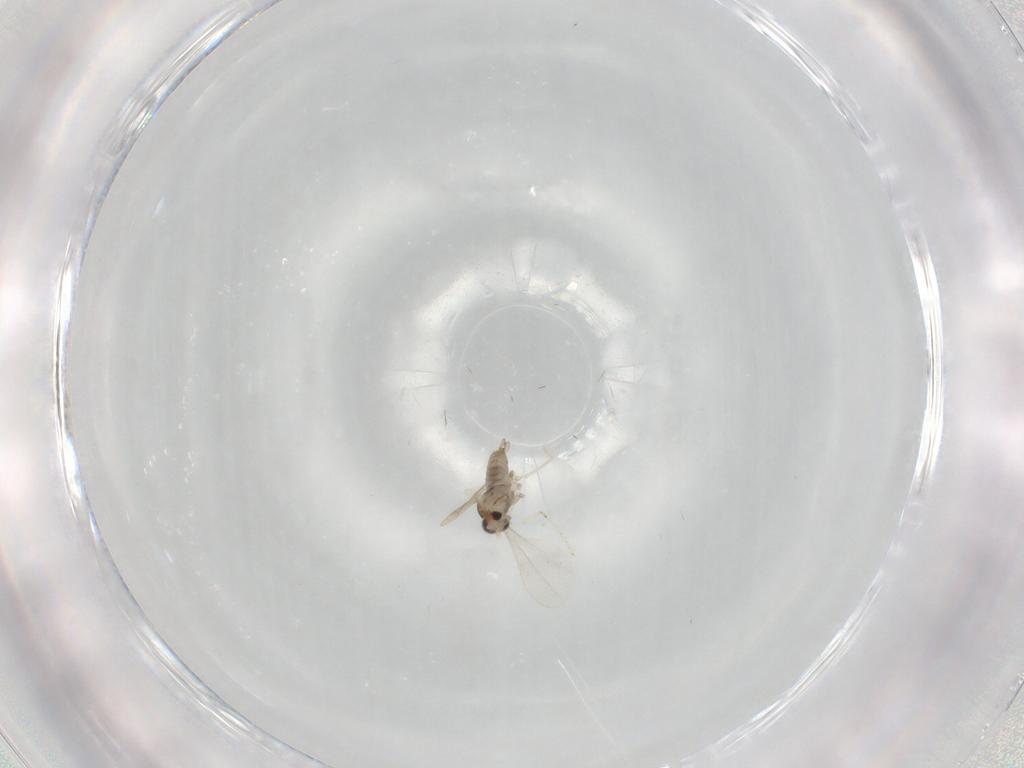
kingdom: Animalia
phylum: Arthropoda
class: Insecta
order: Diptera
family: Cecidomyiidae
